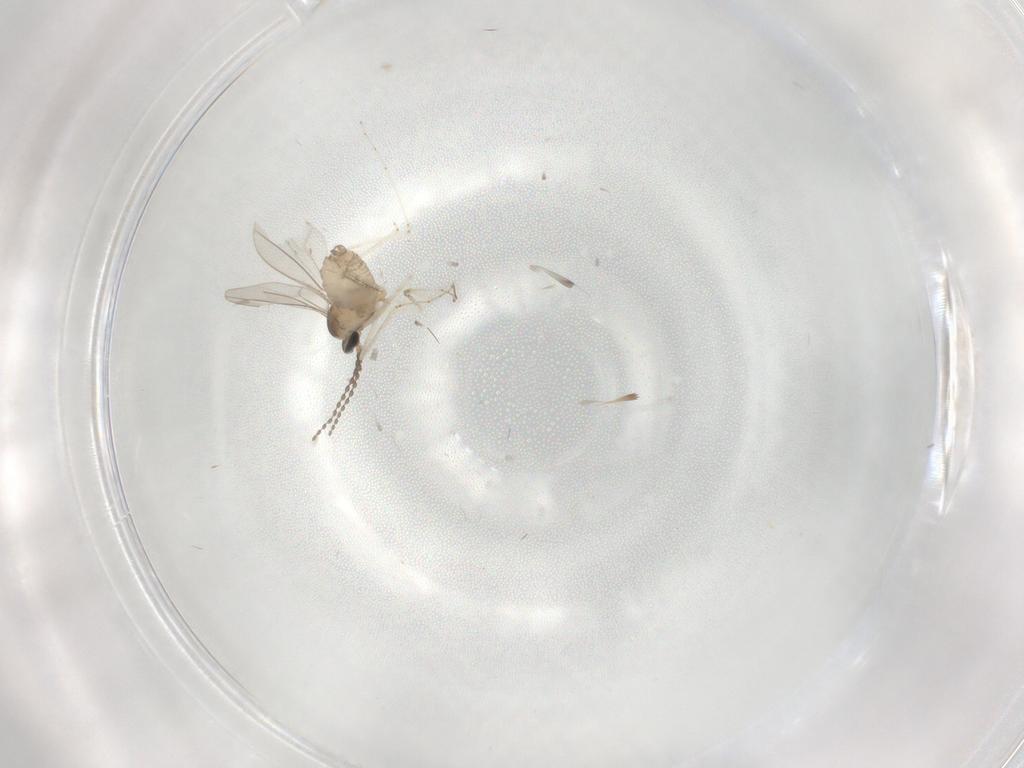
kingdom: Animalia
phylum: Arthropoda
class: Insecta
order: Diptera
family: Cecidomyiidae
